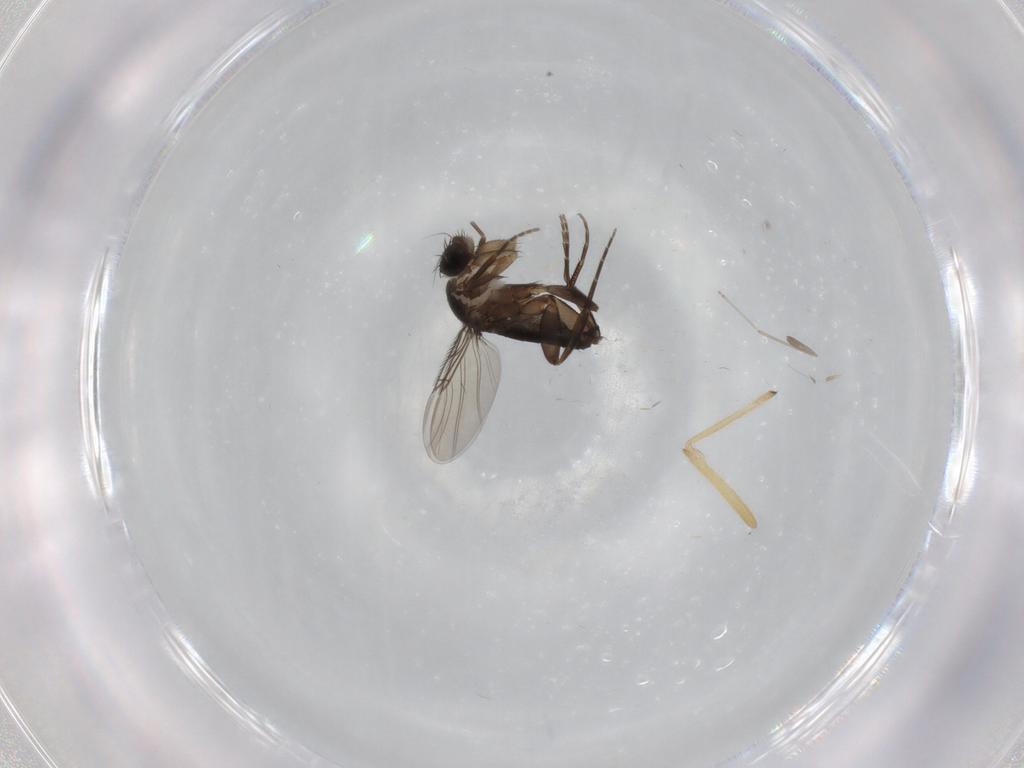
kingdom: Animalia
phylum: Arthropoda
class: Insecta
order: Diptera
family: Phoridae
